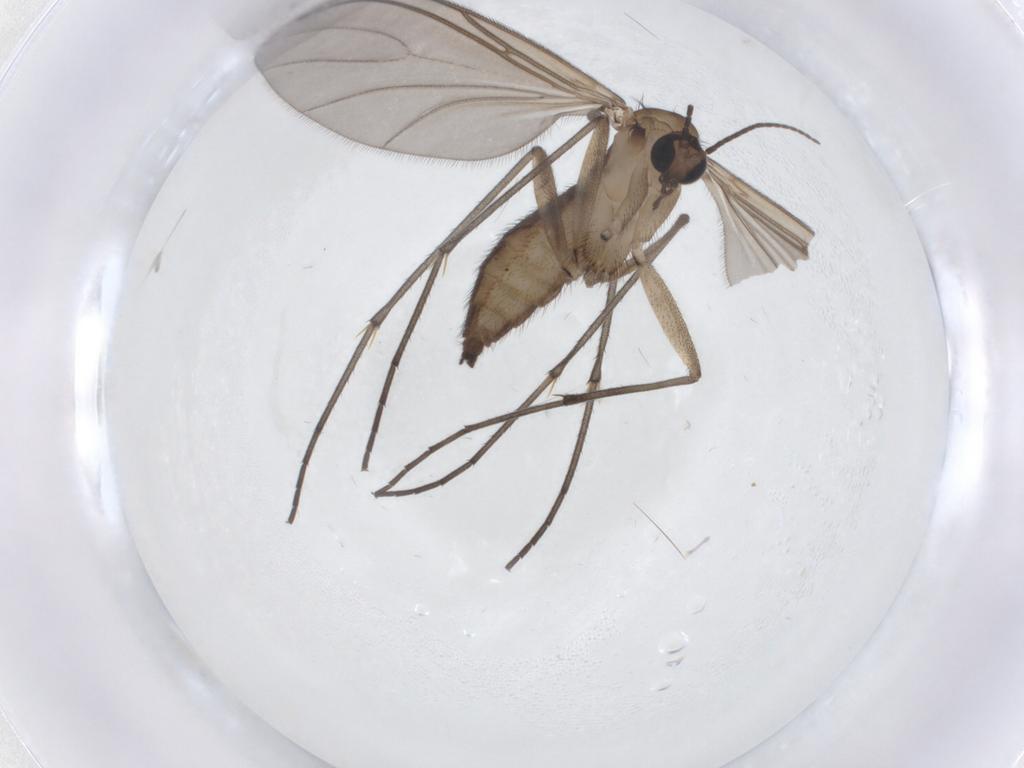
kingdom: Animalia
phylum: Arthropoda
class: Insecta
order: Diptera
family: Sciaridae
